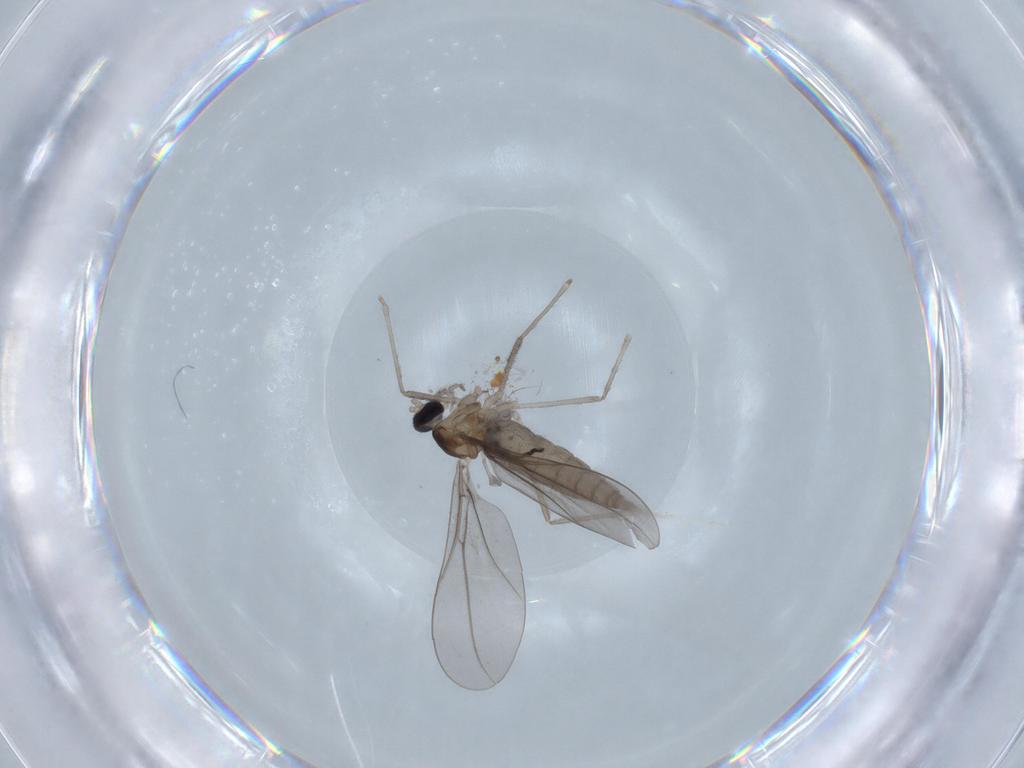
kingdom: Animalia
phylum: Arthropoda
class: Insecta
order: Diptera
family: Cecidomyiidae
